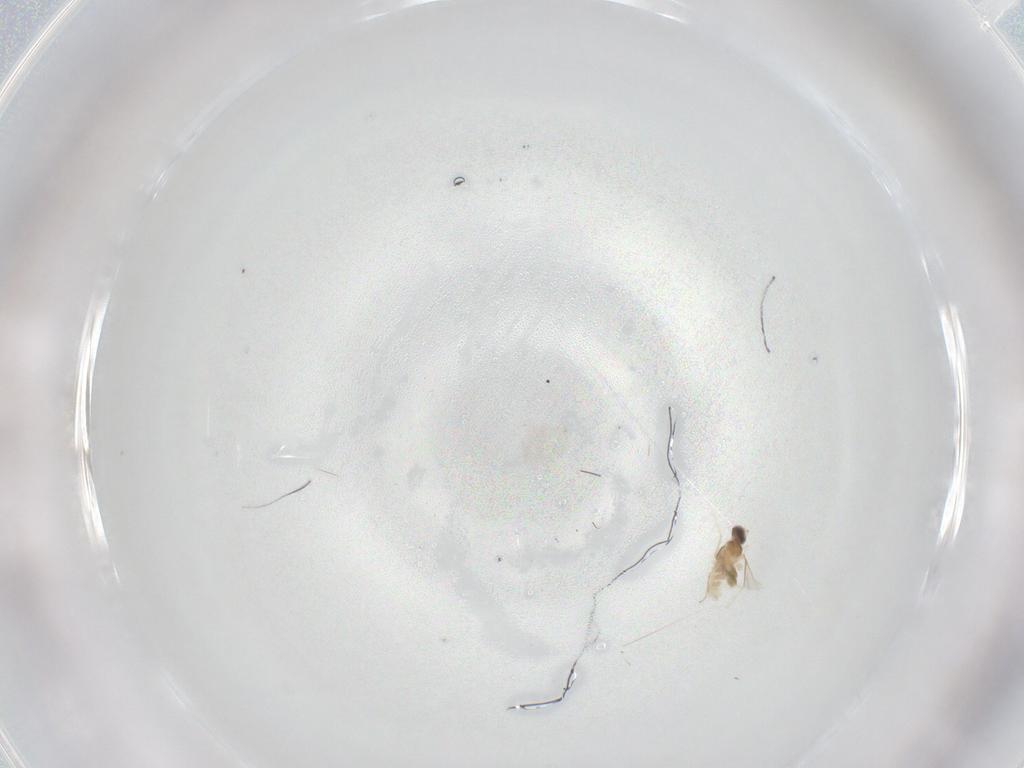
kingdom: Animalia
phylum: Arthropoda
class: Insecta
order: Diptera
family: Cecidomyiidae
